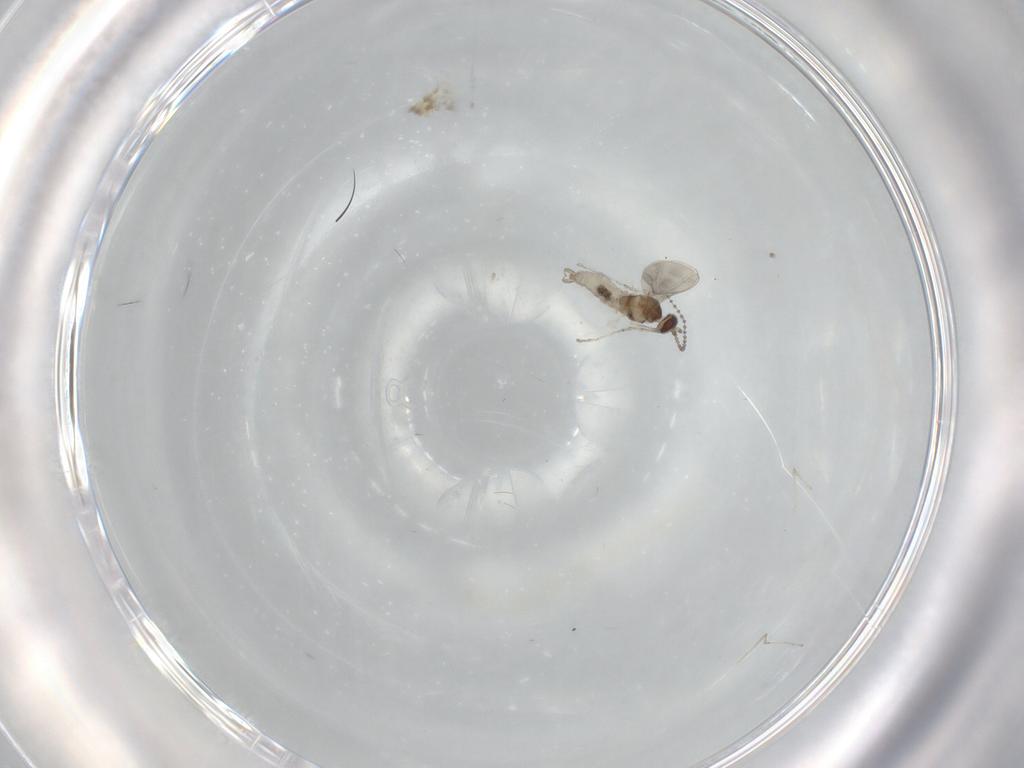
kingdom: Animalia
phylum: Arthropoda
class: Insecta
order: Diptera
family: Cecidomyiidae
